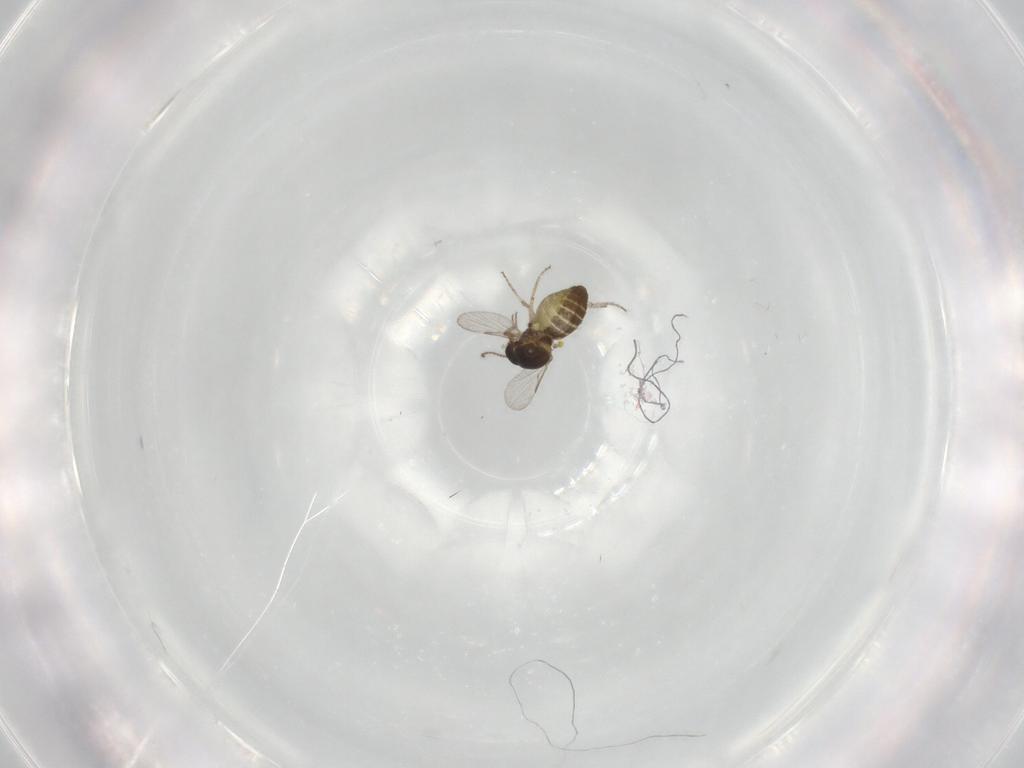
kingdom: Animalia
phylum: Arthropoda
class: Insecta
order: Diptera
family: Ceratopogonidae
